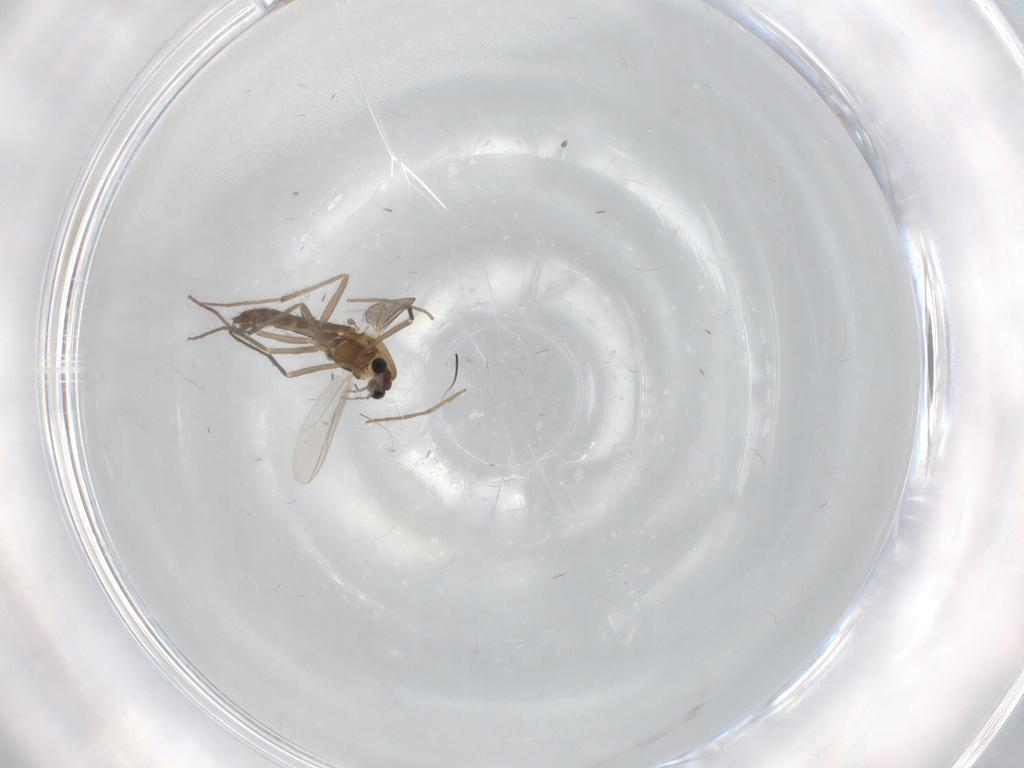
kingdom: Animalia
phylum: Arthropoda
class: Insecta
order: Diptera
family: Chironomidae
